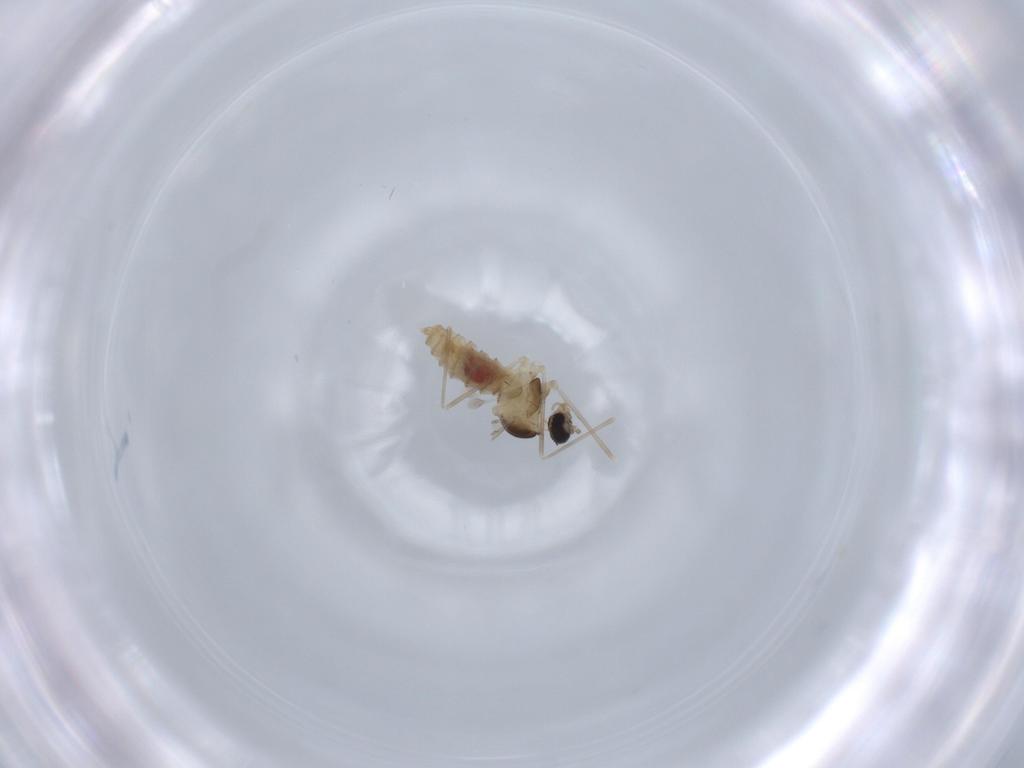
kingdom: Animalia
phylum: Arthropoda
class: Insecta
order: Diptera
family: Cecidomyiidae
